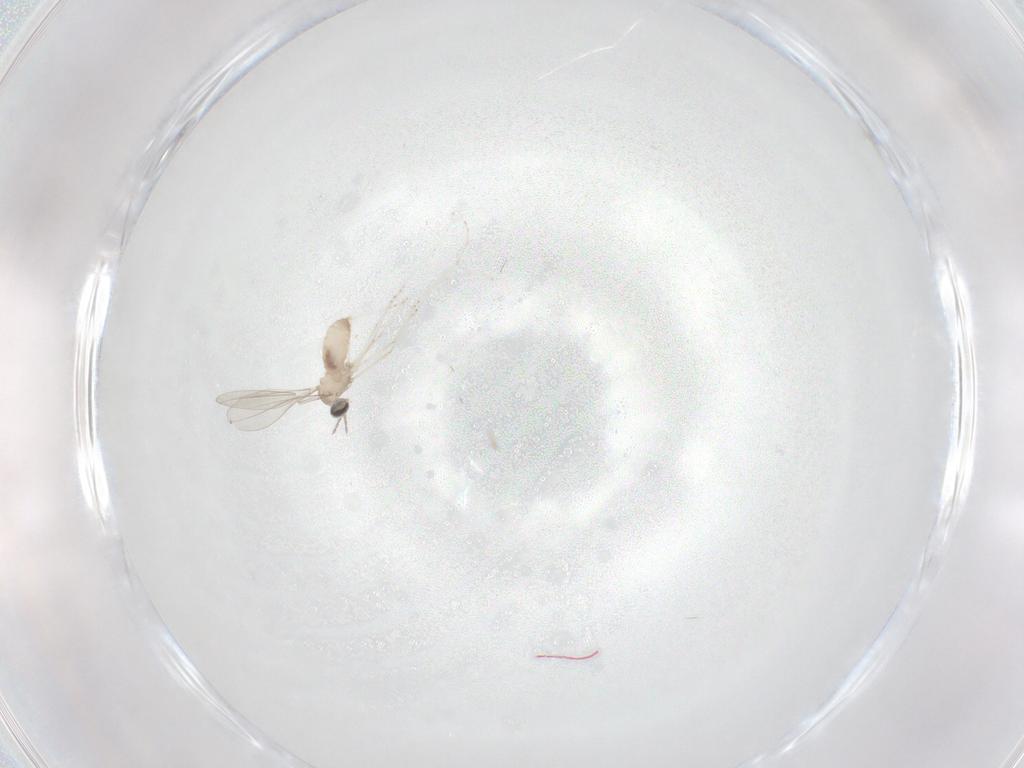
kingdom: Animalia
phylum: Arthropoda
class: Insecta
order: Diptera
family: Cecidomyiidae
